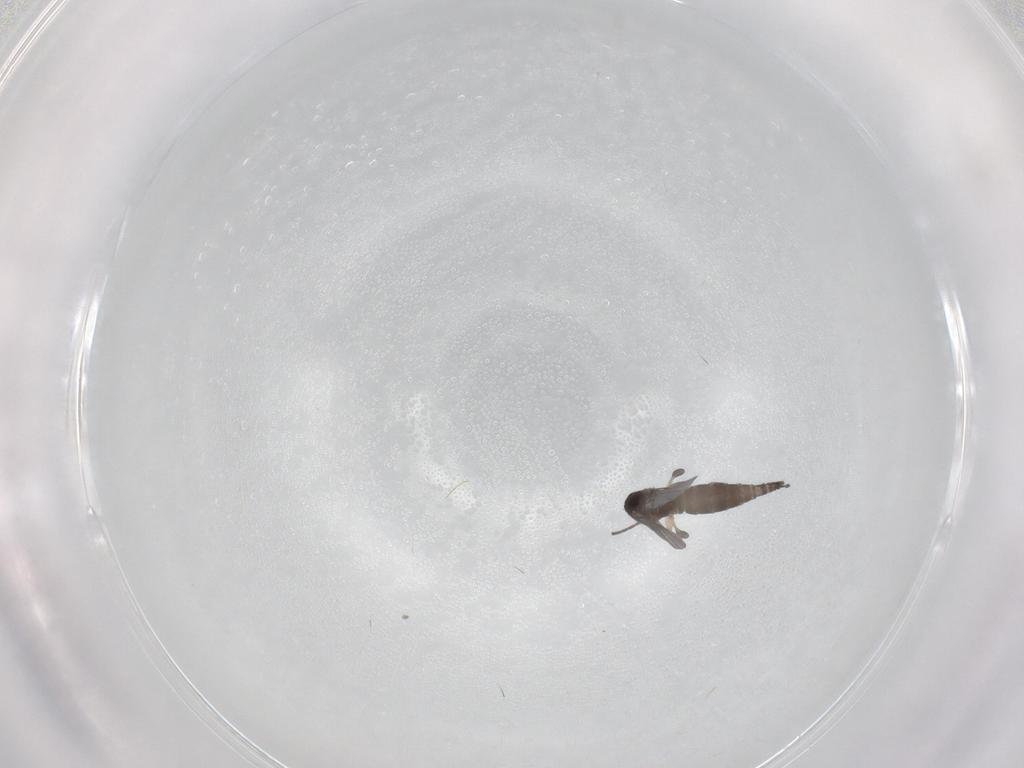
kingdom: Animalia
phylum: Arthropoda
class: Insecta
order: Diptera
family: Sciaridae
